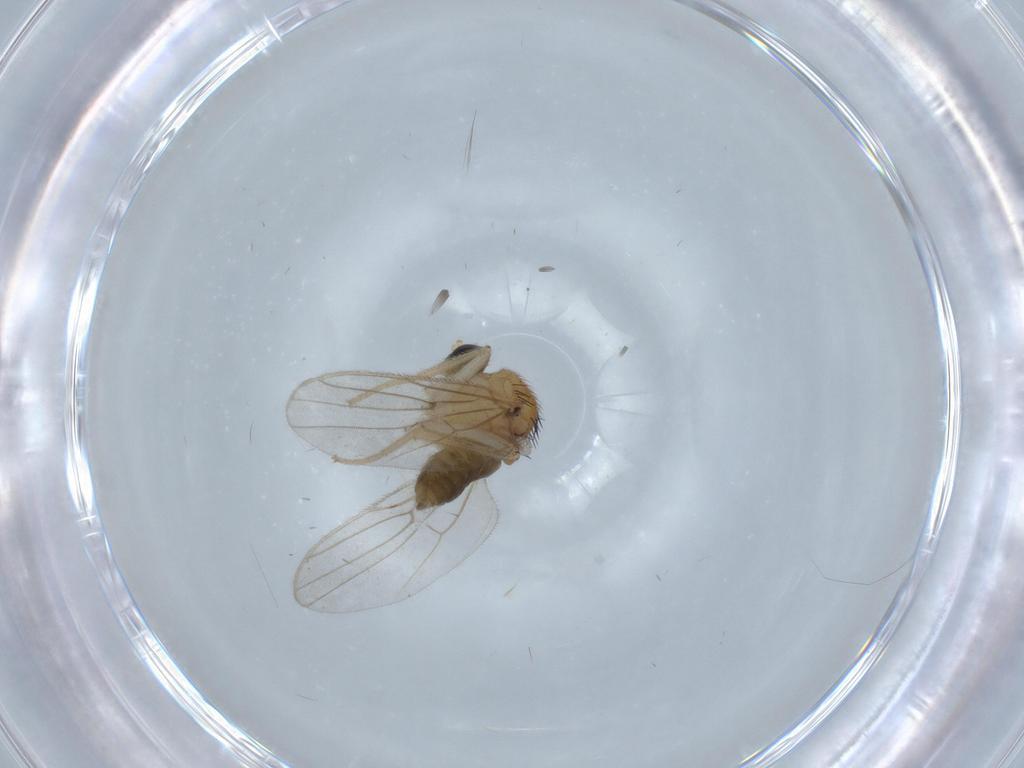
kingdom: Animalia
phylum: Arthropoda
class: Insecta
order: Diptera
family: Hybotidae
